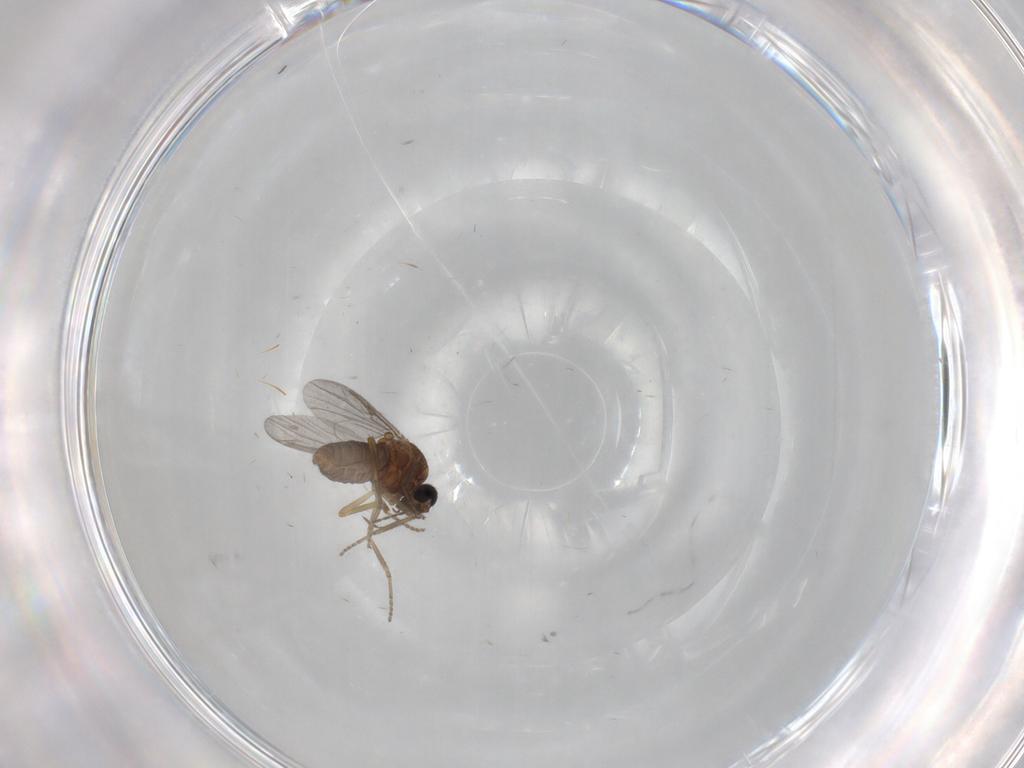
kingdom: Animalia
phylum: Arthropoda
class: Insecta
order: Diptera
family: Ceratopogonidae
